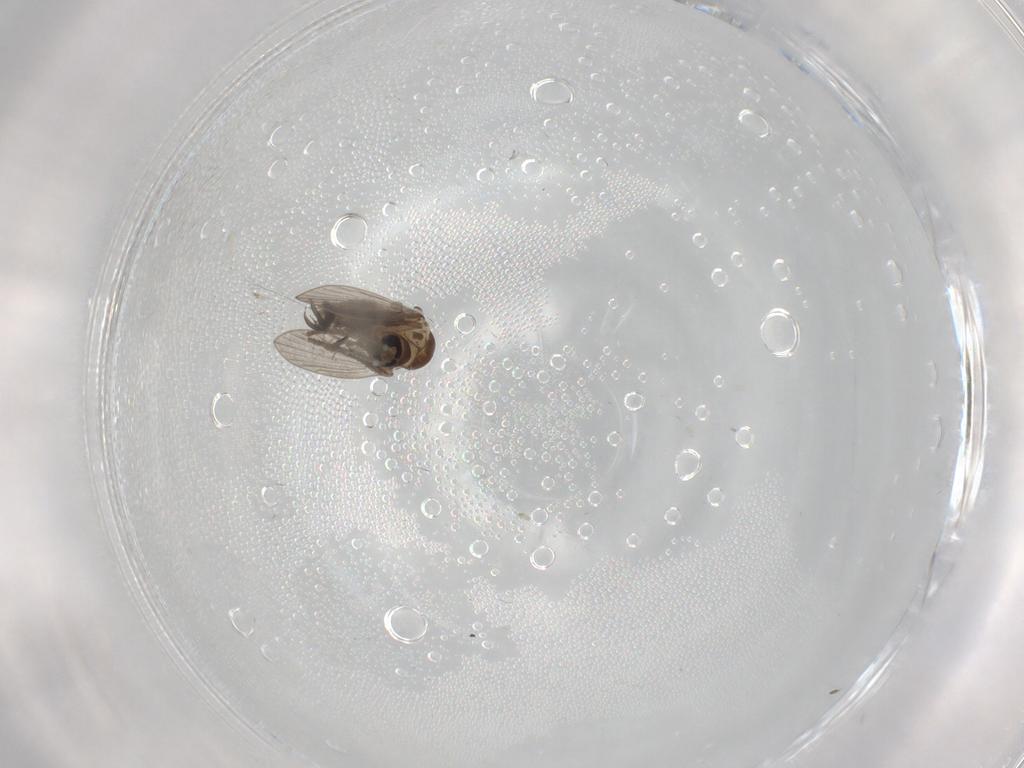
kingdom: Animalia
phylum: Arthropoda
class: Insecta
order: Diptera
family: Psychodidae
